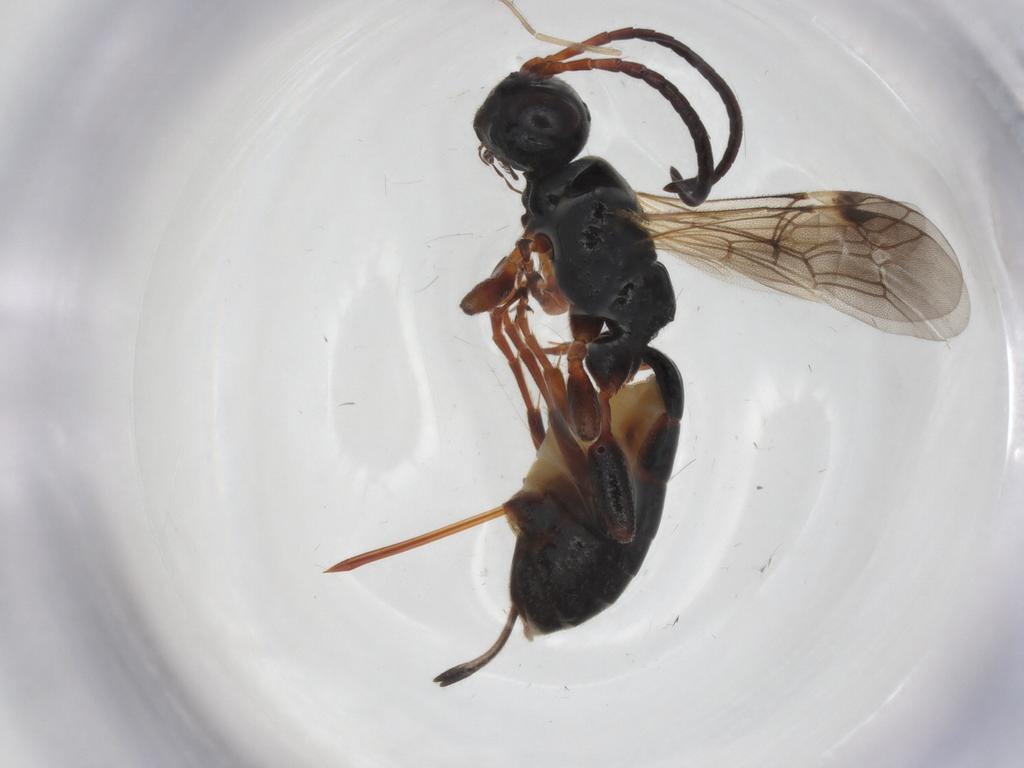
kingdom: Animalia
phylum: Arthropoda
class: Insecta
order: Hymenoptera
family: Ichneumonidae
